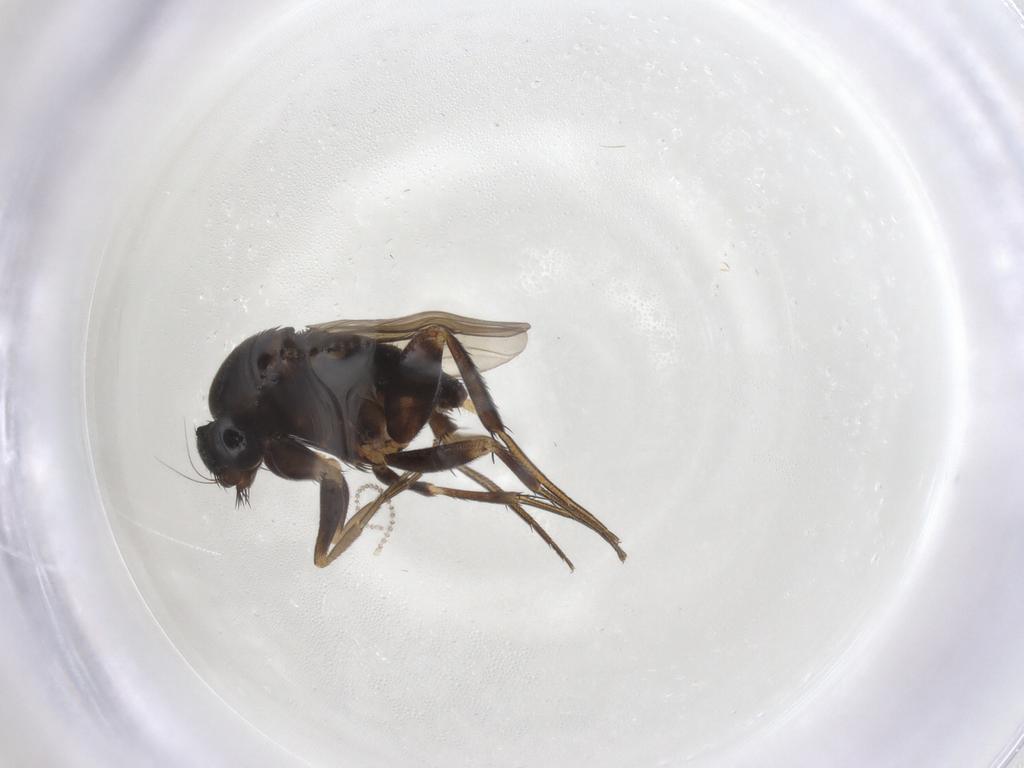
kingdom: Animalia
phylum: Arthropoda
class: Insecta
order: Diptera
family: Phoridae
